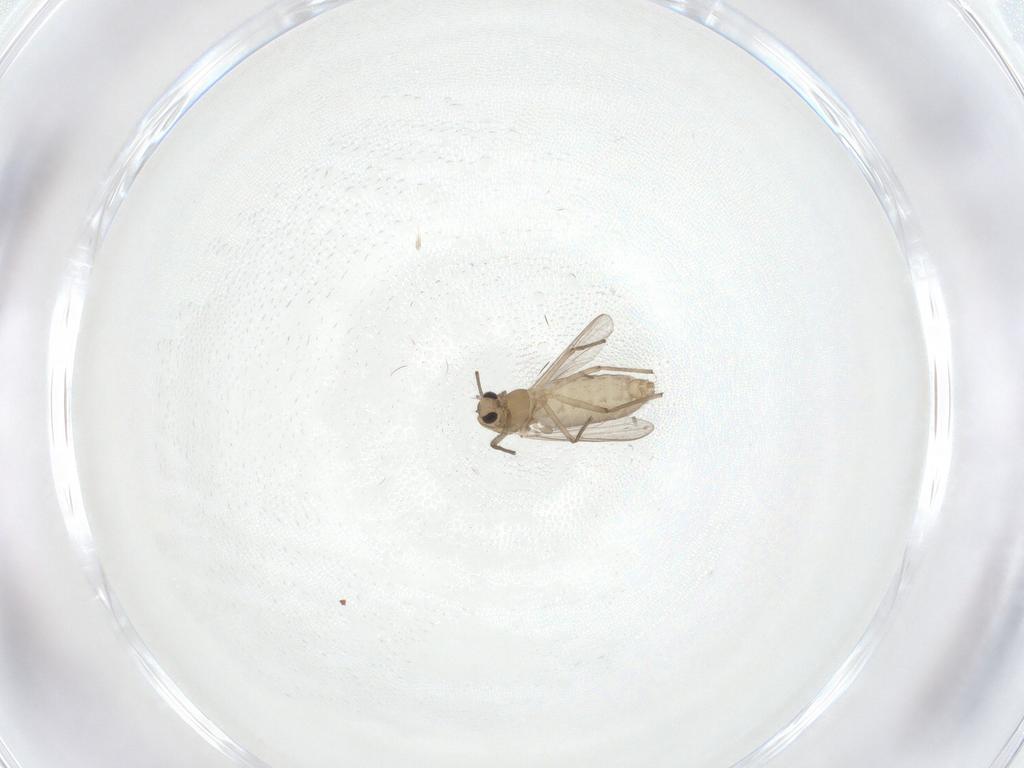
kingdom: Animalia
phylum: Arthropoda
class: Insecta
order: Diptera
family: Chironomidae
